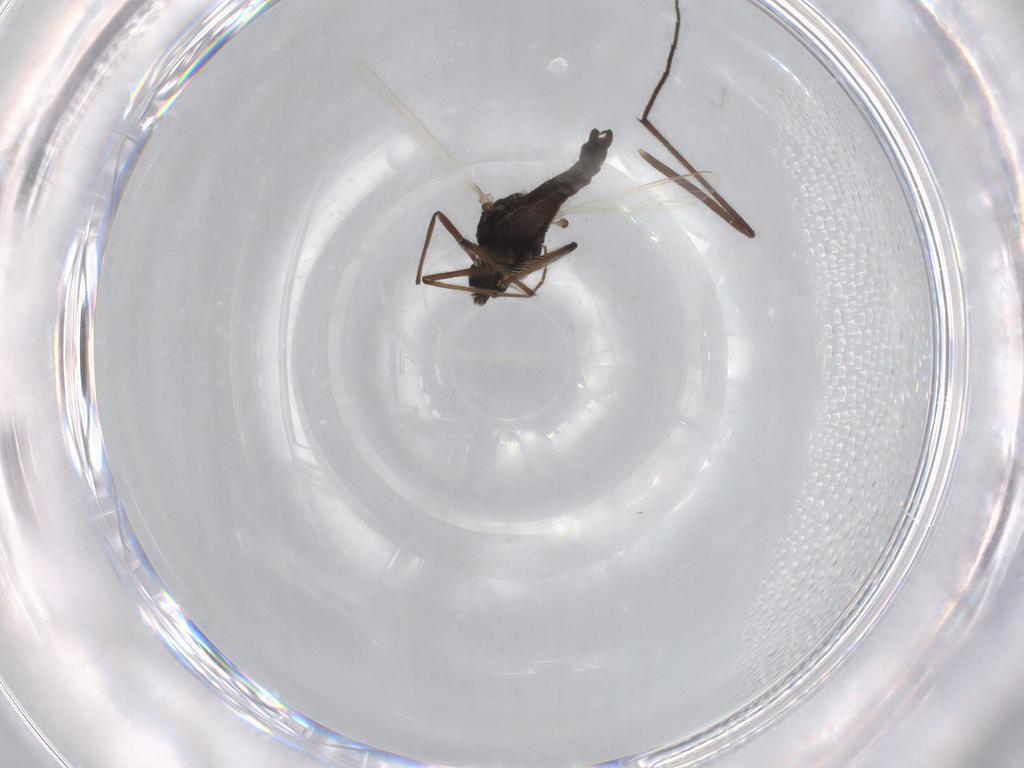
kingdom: Animalia
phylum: Arthropoda
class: Insecta
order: Diptera
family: Chironomidae
